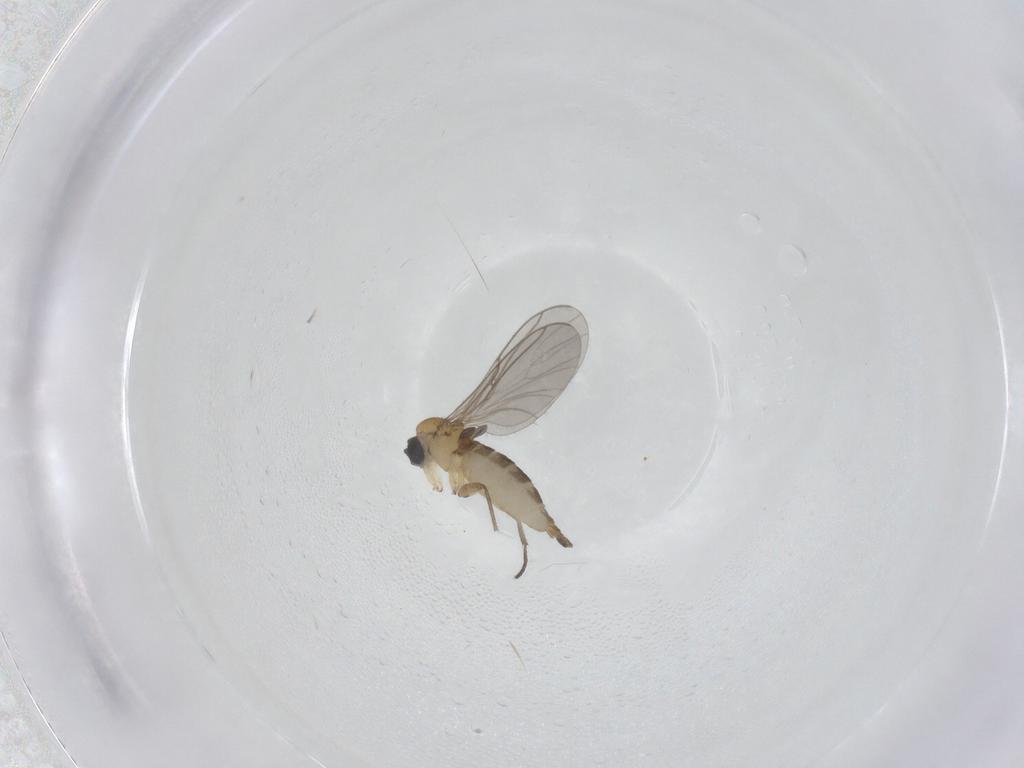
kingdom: Animalia
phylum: Arthropoda
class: Insecta
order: Diptera
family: Sciaridae
